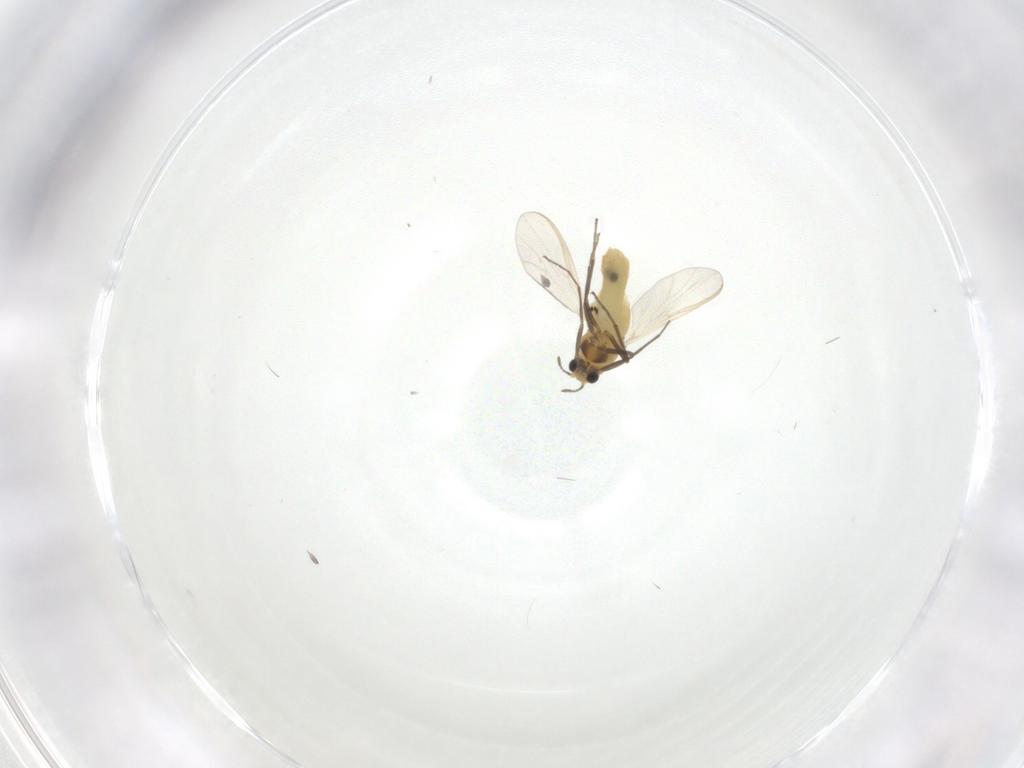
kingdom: Animalia
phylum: Arthropoda
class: Insecta
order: Diptera
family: Chironomidae
